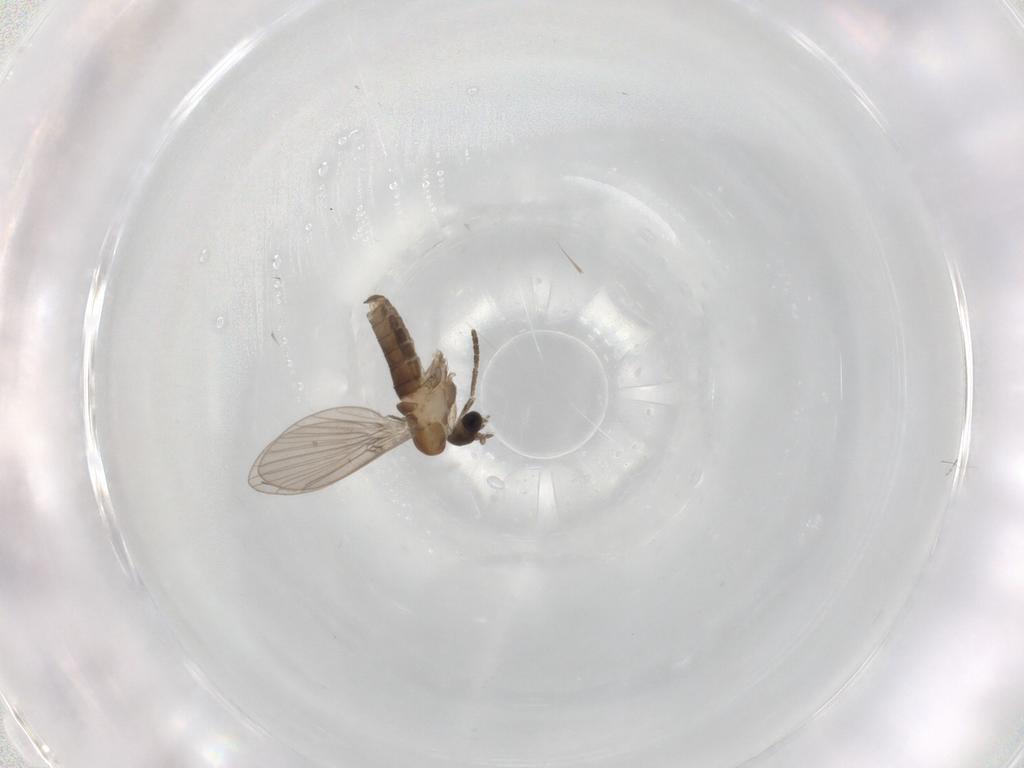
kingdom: Animalia
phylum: Arthropoda
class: Insecta
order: Diptera
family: Psychodidae
